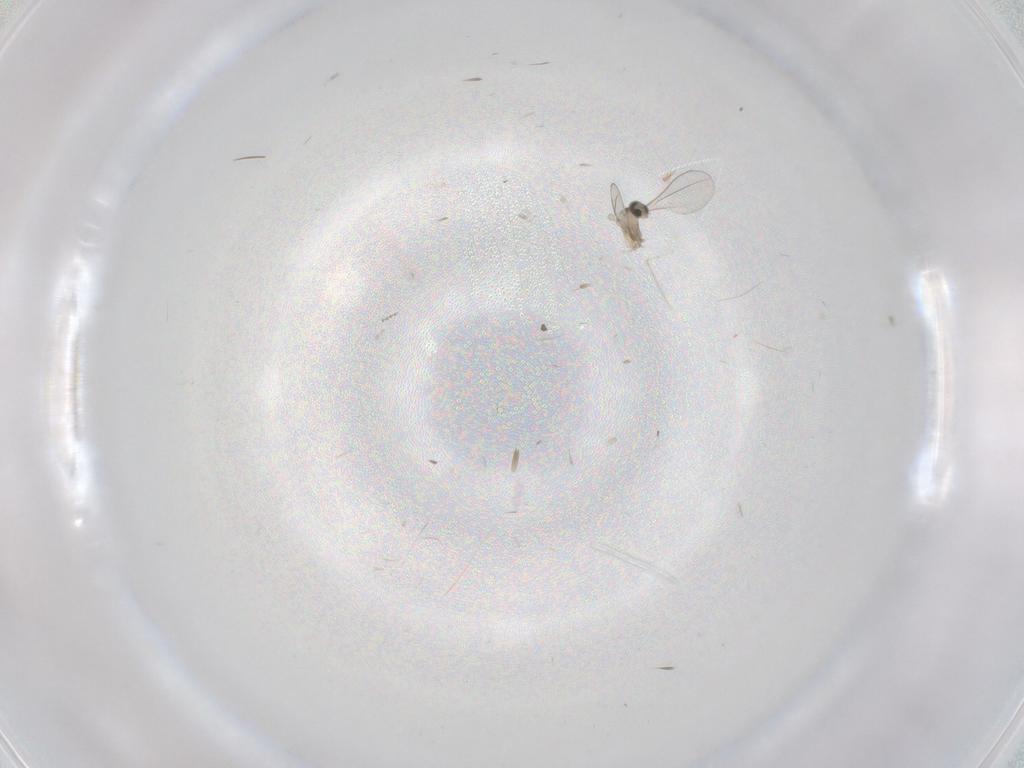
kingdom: Animalia
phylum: Arthropoda
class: Insecta
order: Diptera
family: Cecidomyiidae
